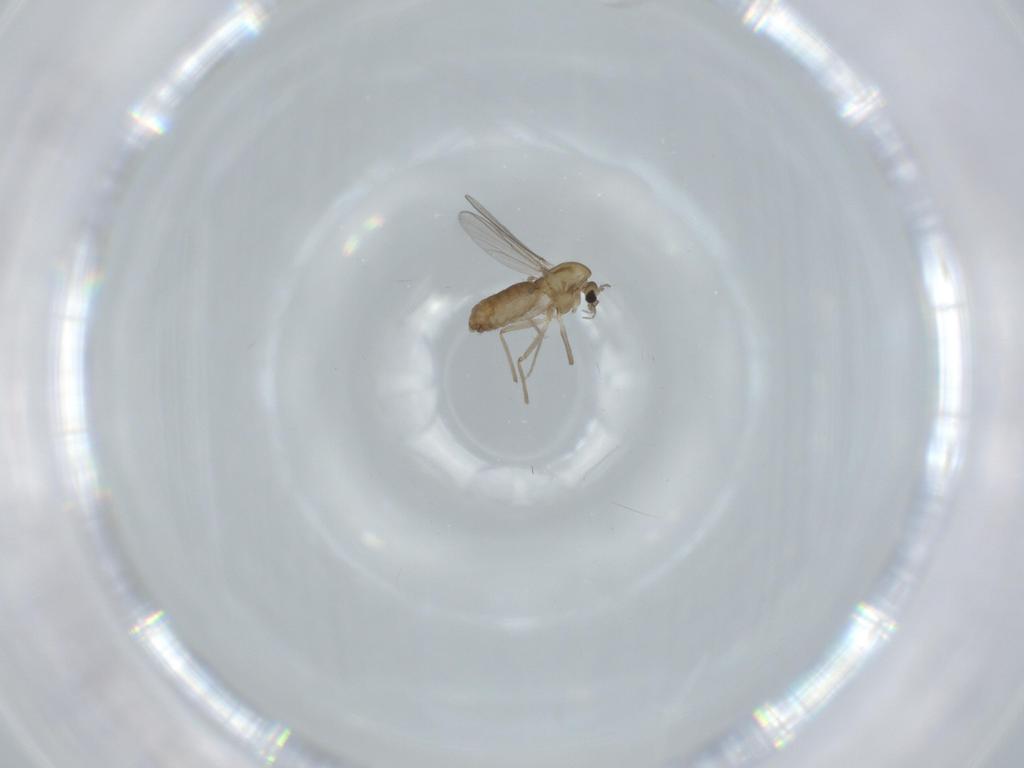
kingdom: Animalia
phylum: Arthropoda
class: Insecta
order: Diptera
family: Chironomidae
